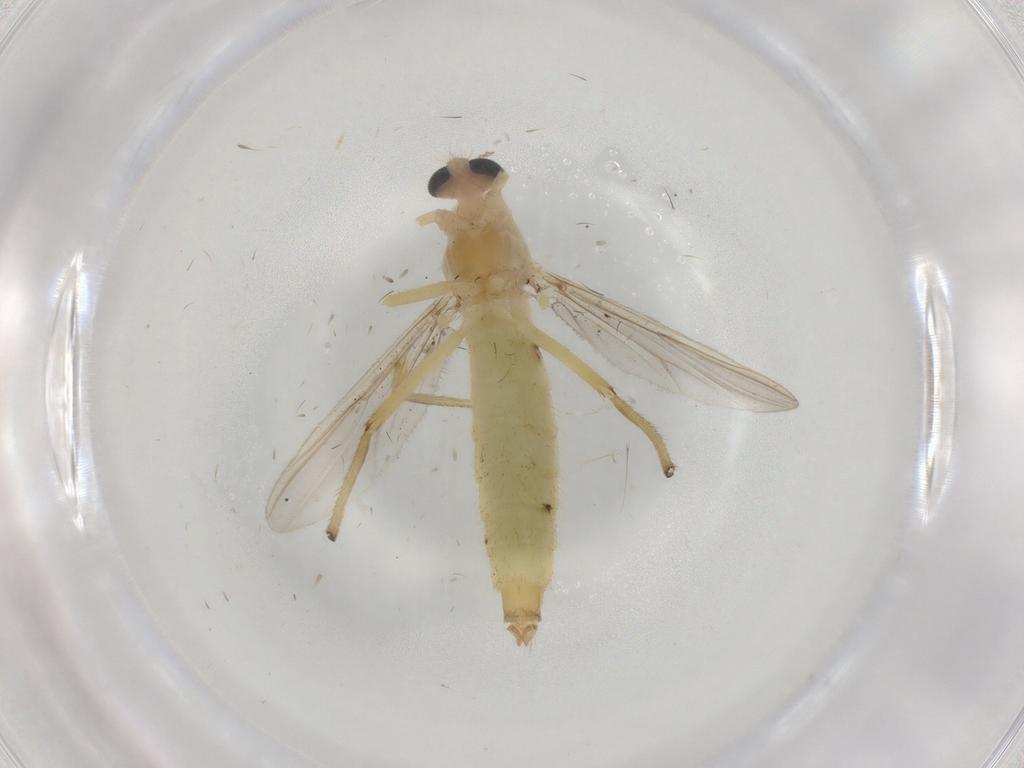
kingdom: Animalia
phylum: Arthropoda
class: Insecta
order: Diptera
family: Chironomidae
